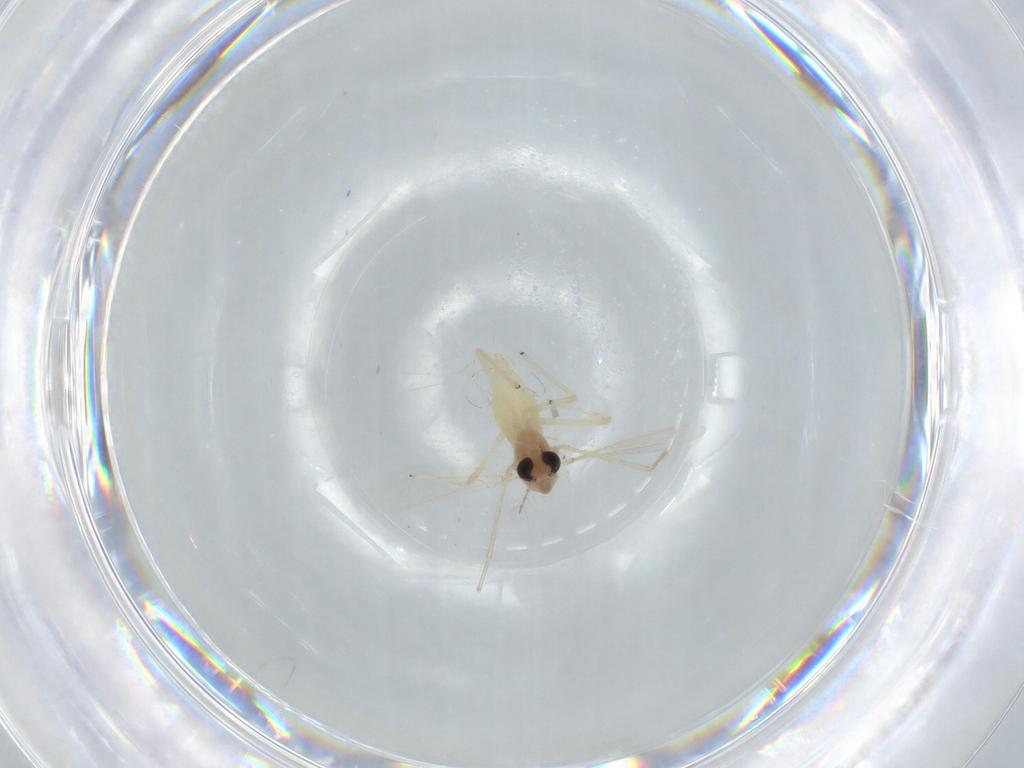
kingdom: Animalia
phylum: Arthropoda
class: Insecta
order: Diptera
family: Chironomidae
